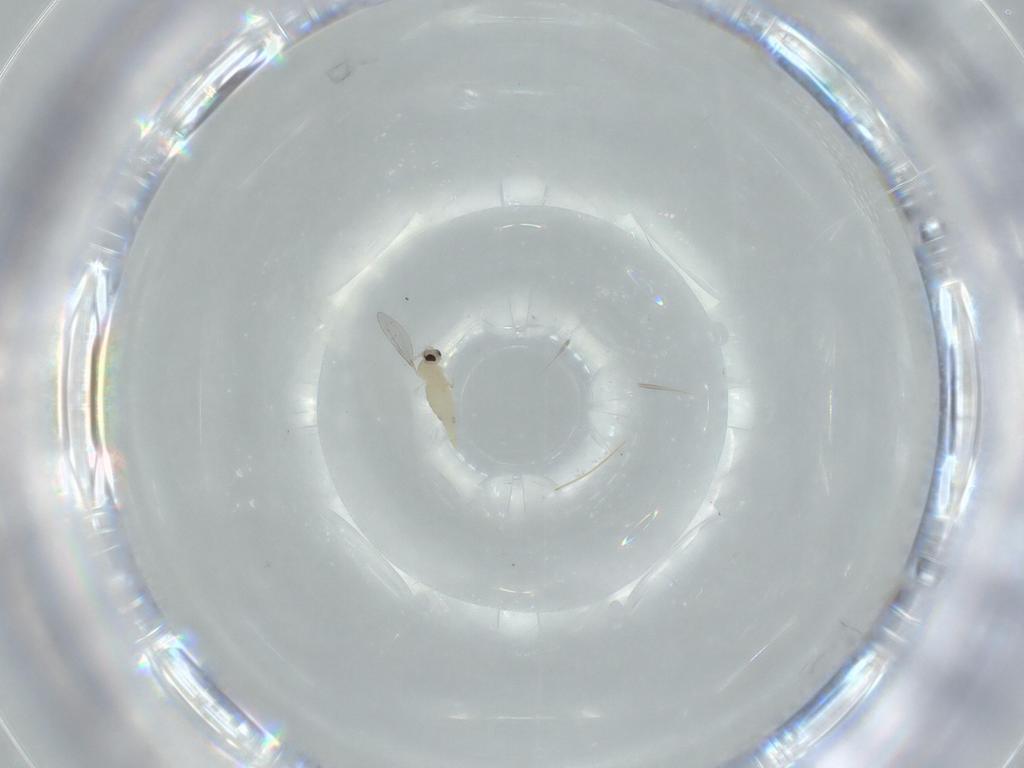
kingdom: Animalia
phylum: Arthropoda
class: Insecta
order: Diptera
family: Cecidomyiidae
